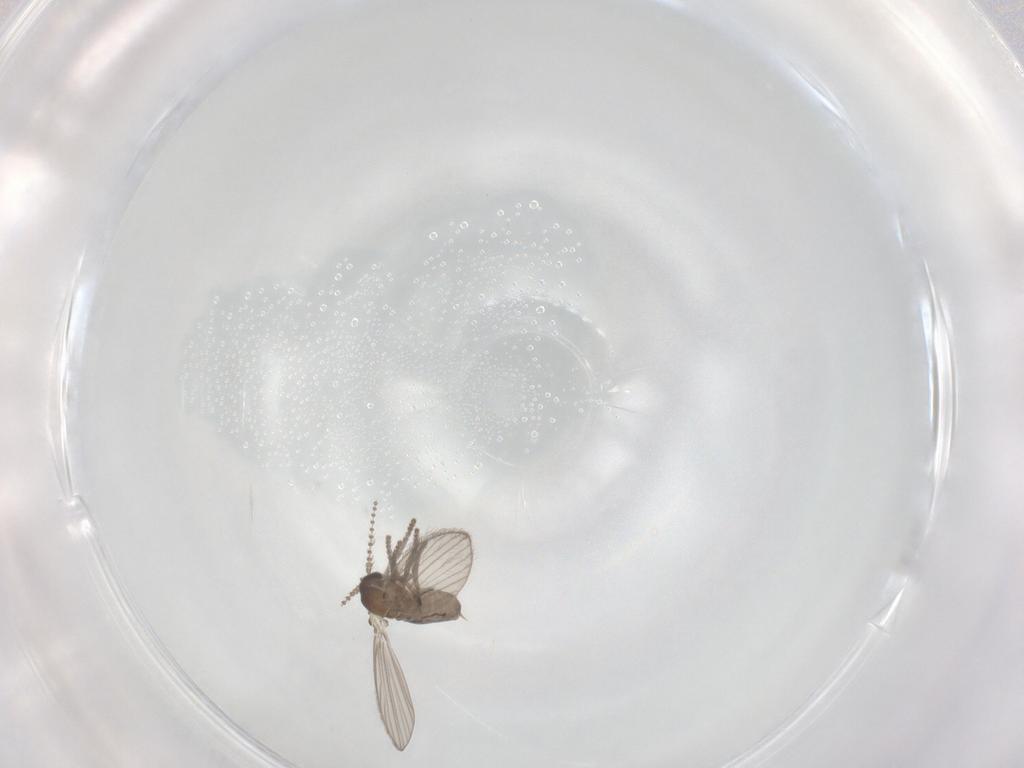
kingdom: Animalia
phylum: Arthropoda
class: Insecta
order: Diptera
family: Psychodidae
